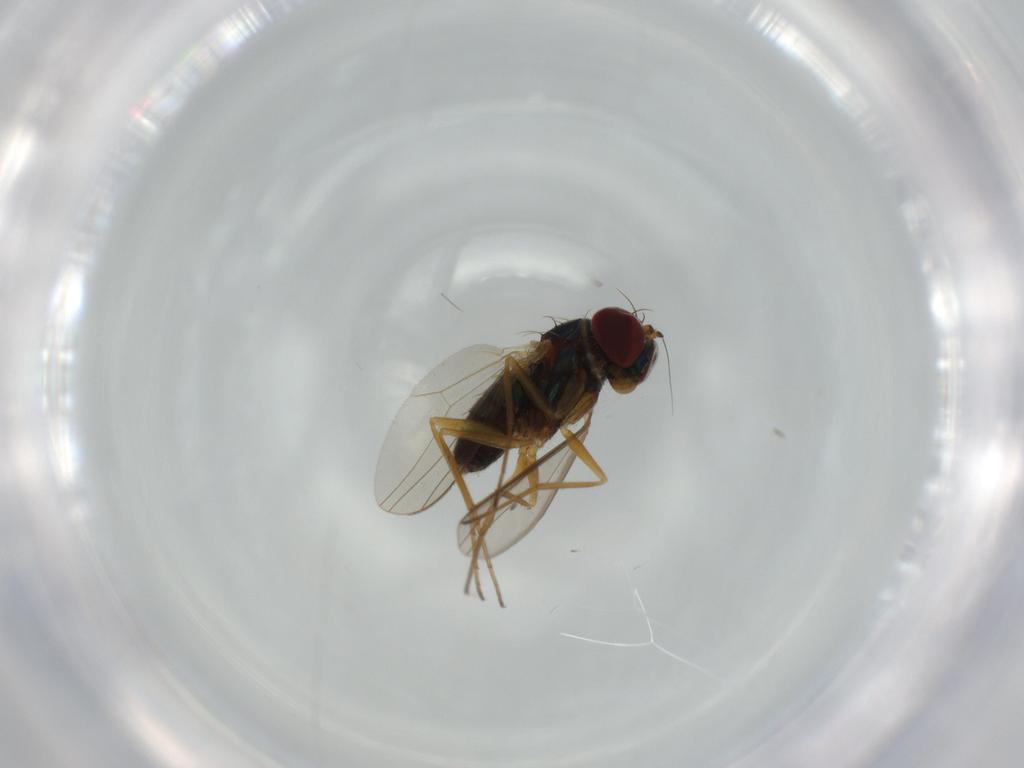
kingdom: Animalia
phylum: Arthropoda
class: Insecta
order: Diptera
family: Dolichopodidae
